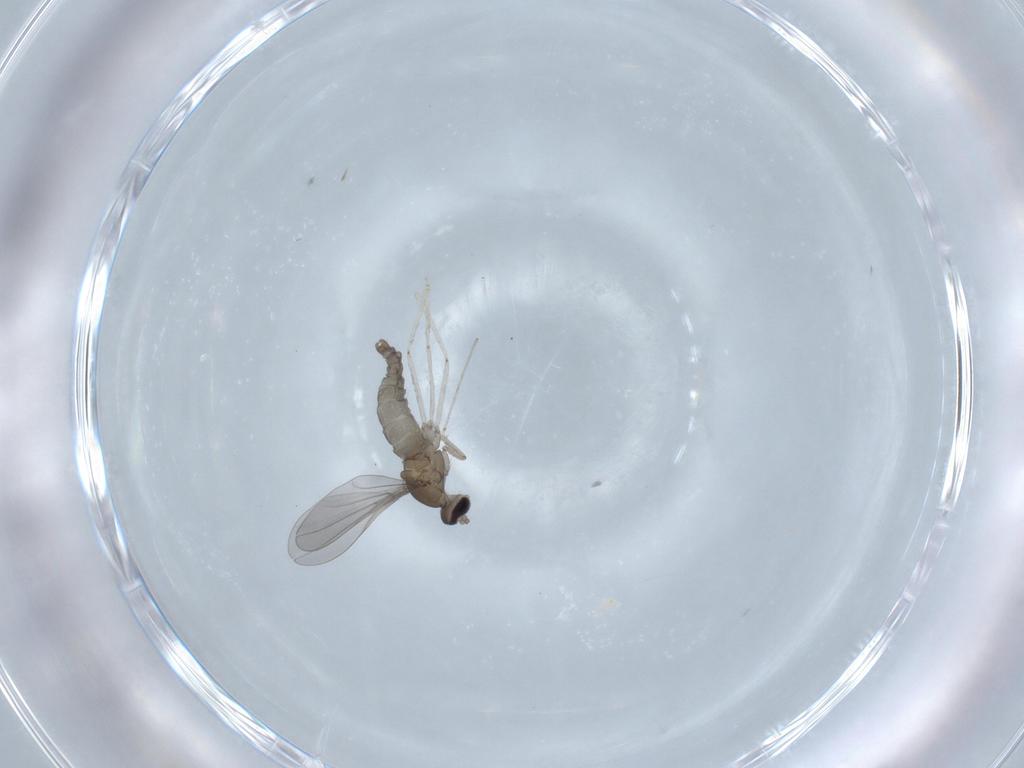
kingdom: Animalia
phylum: Arthropoda
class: Insecta
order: Diptera
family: Cecidomyiidae
